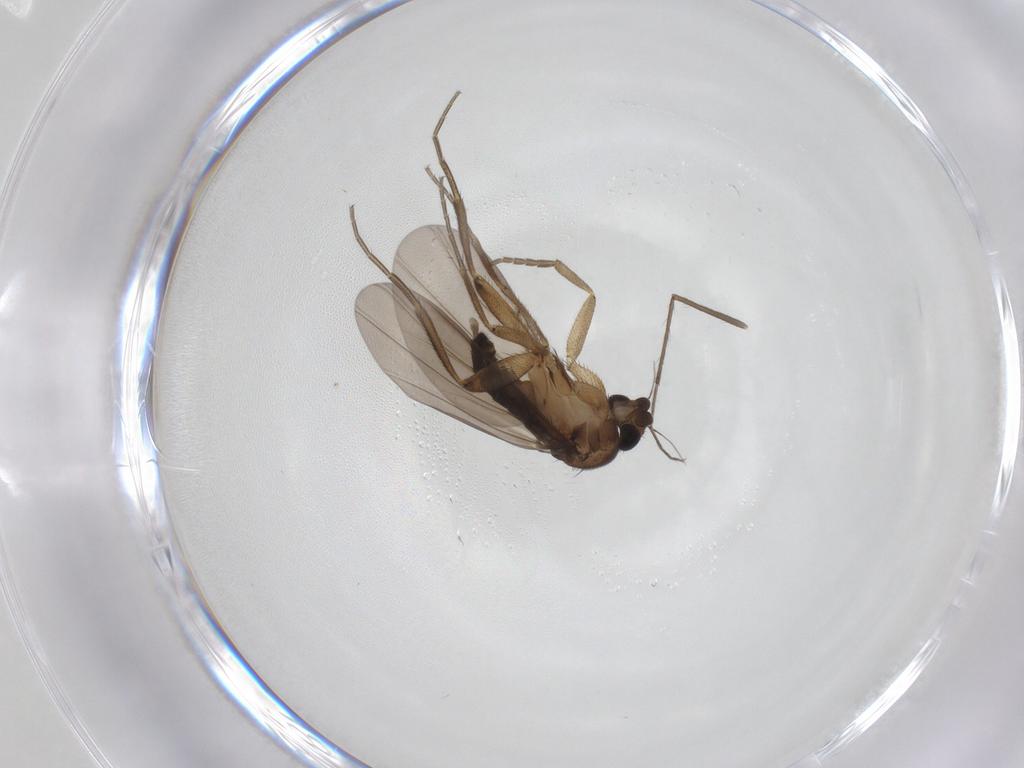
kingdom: Animalia
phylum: Arthropoda
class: Insecta
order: Diptera
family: Chironomidae
